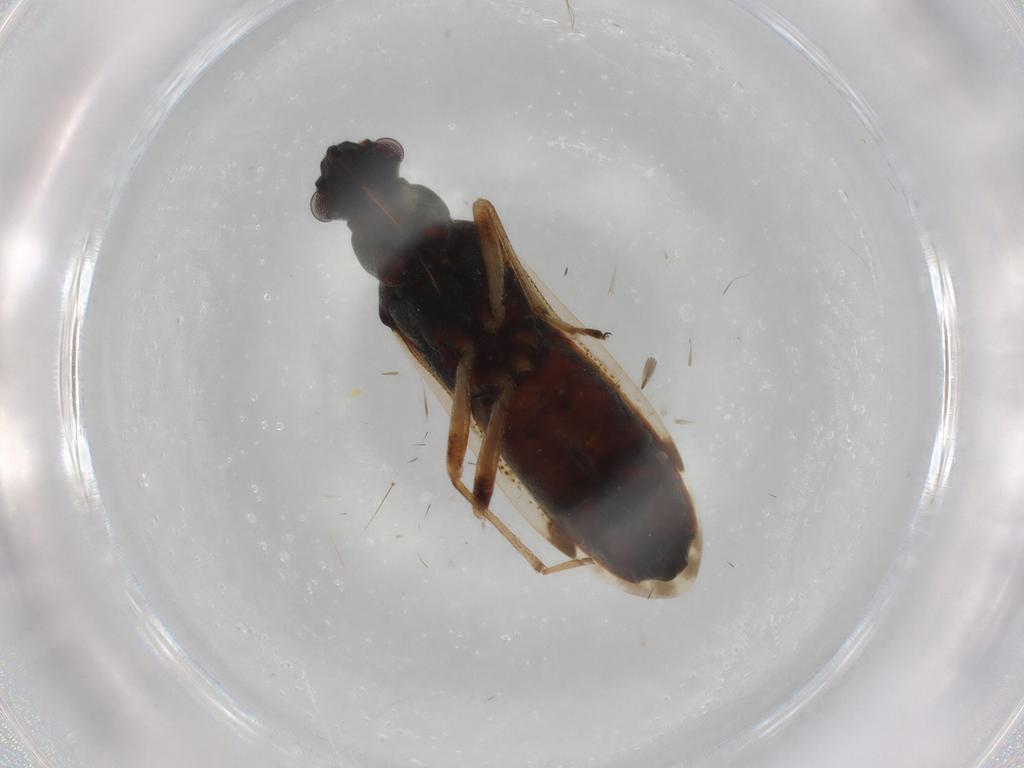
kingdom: Animalia
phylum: Arthropoda
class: Insecta
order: Hemiptera
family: Rhyparochromidae
